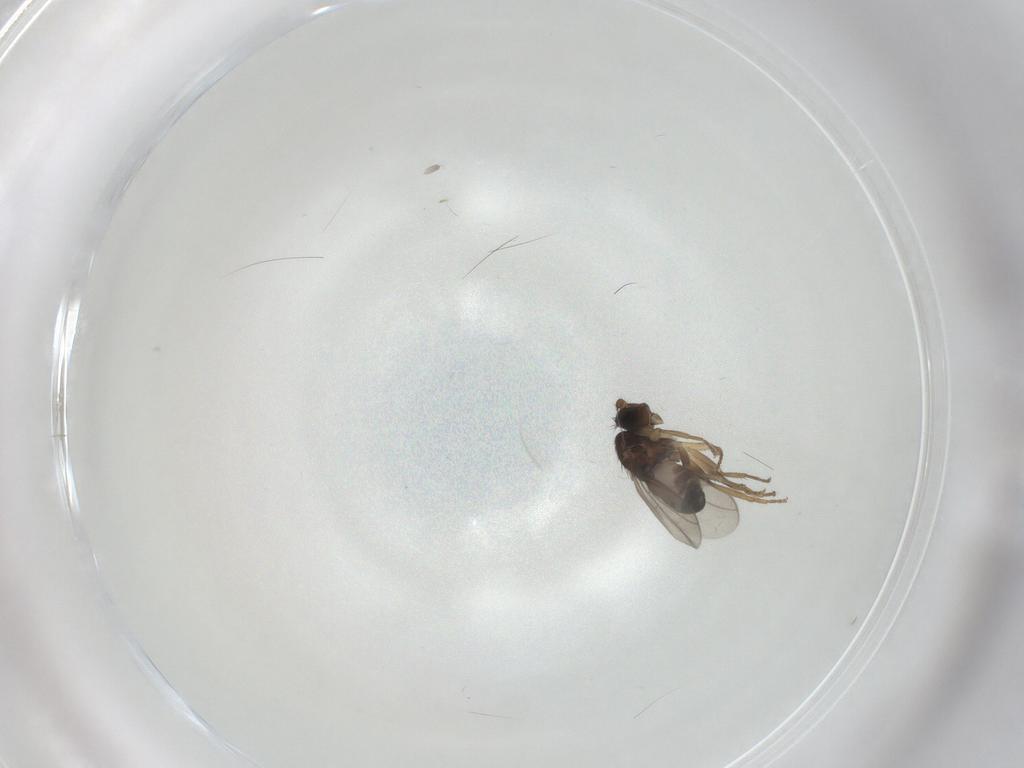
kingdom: Animalia
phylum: Arthropoda
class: Insecta
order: Diptera
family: Sphaeroceridae
